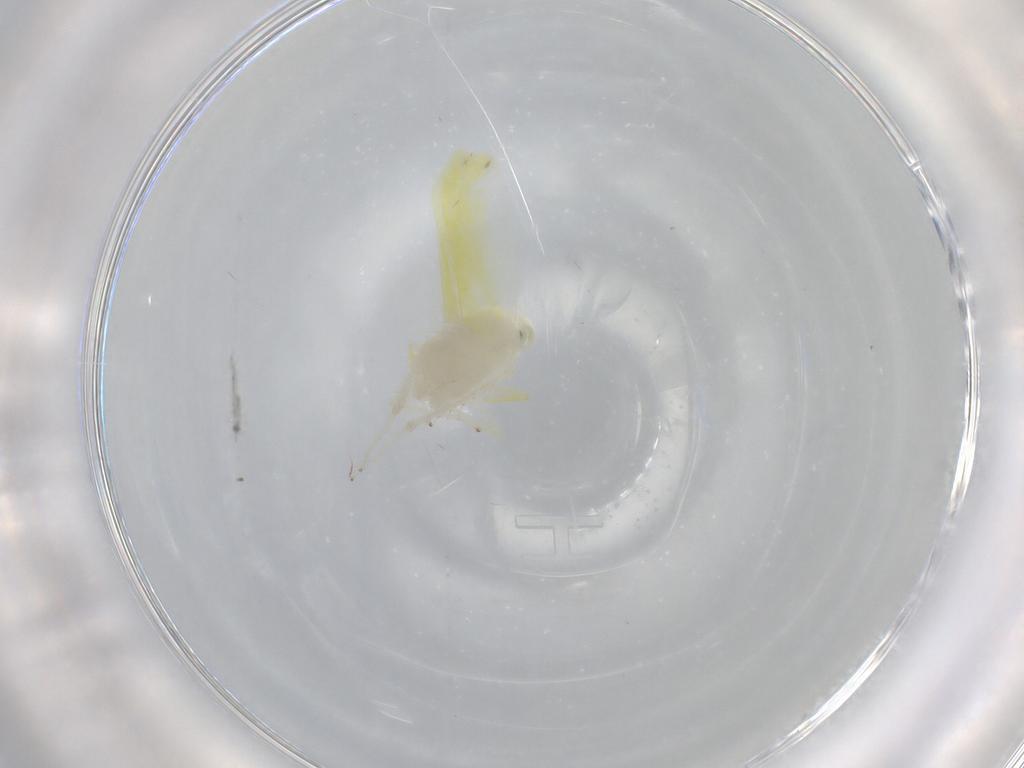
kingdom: Animalia
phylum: Arthropoda
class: Insecta
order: Hemiptera
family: Cicadellidae
